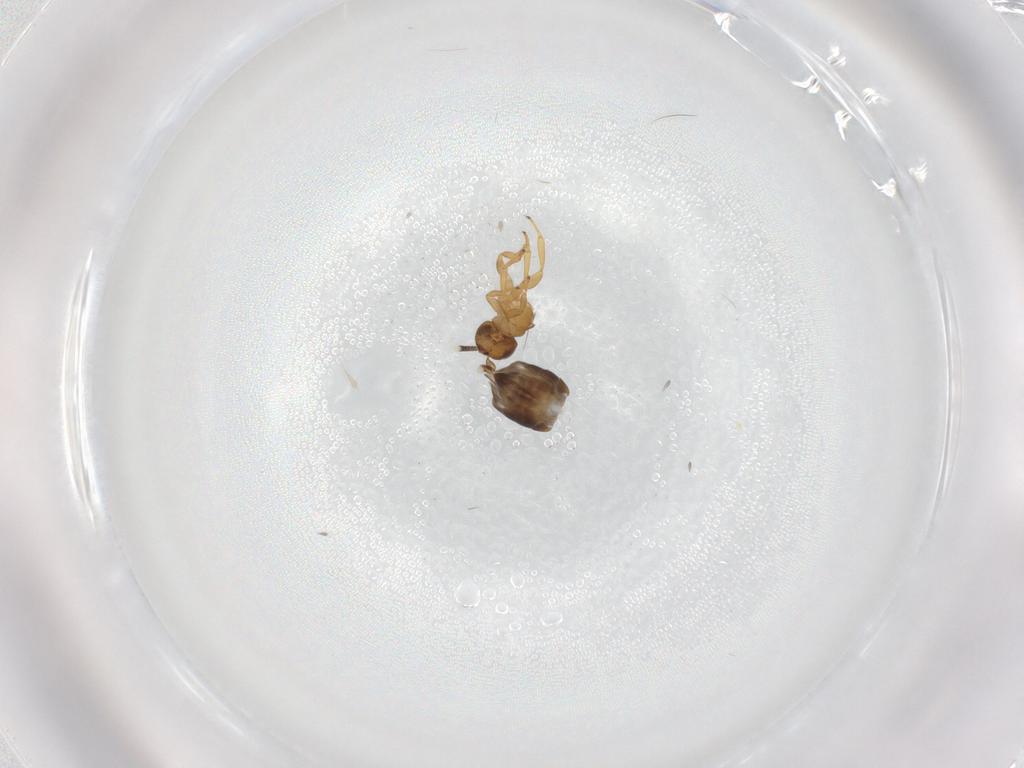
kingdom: Animalia
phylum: Arthropoda
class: Insecta
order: Hymenoptera
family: Encyrtidae
